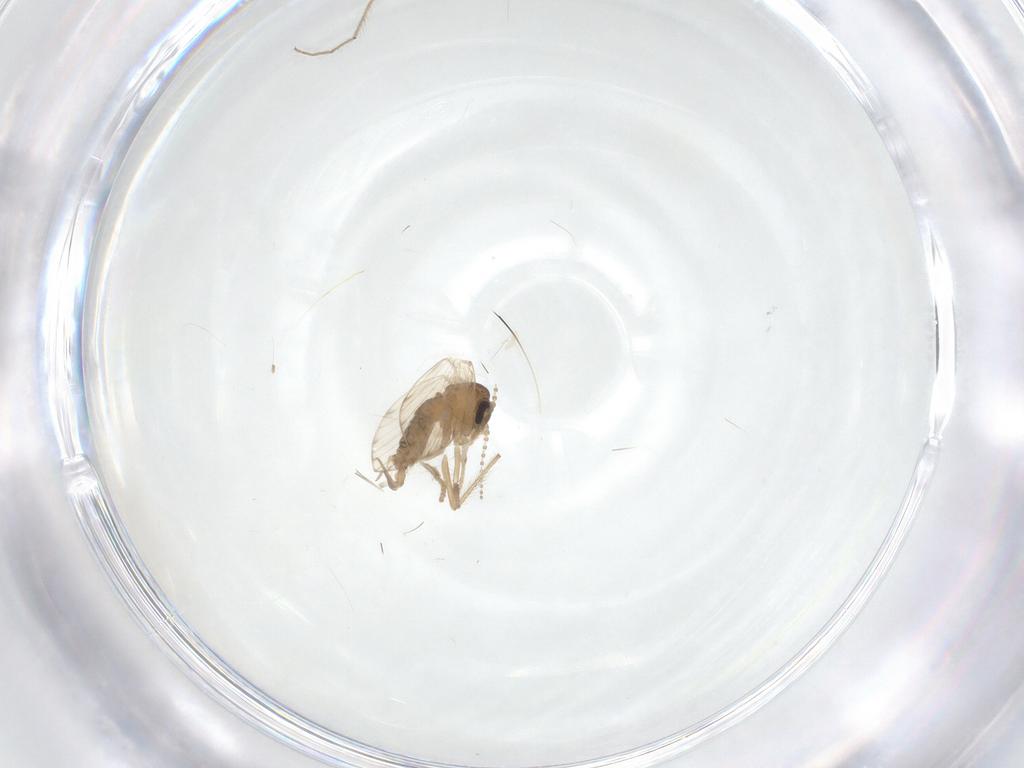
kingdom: Animalia
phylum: Arthropoda
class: Insecta
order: Diptera
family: Psychodidae
